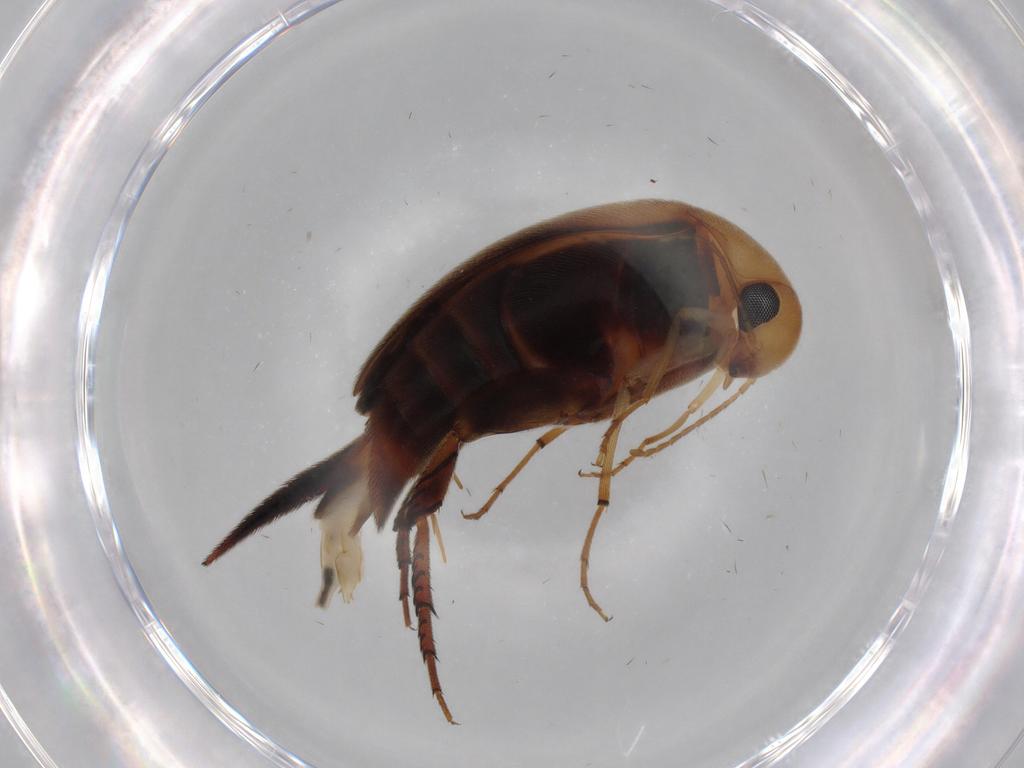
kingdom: Animalia
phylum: Arthropoda
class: Insecta
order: Coleoptera
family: Mordellidae
